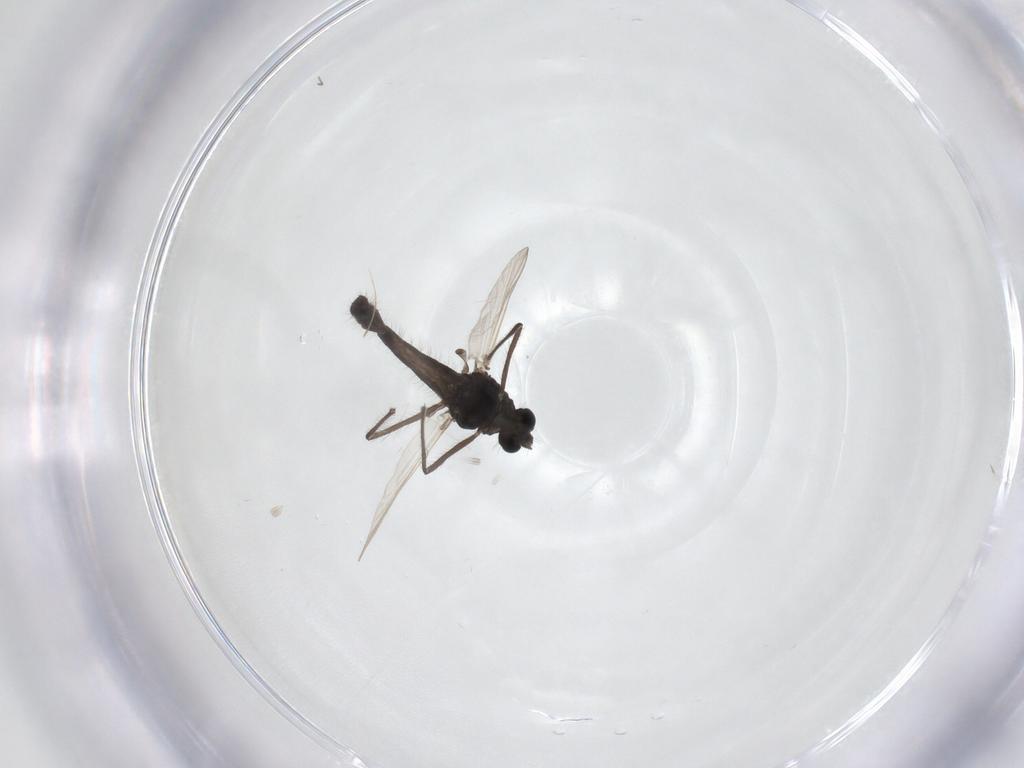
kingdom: Animalia
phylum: Arthropoda
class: Insecta
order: Diptera
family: Chironomidae
